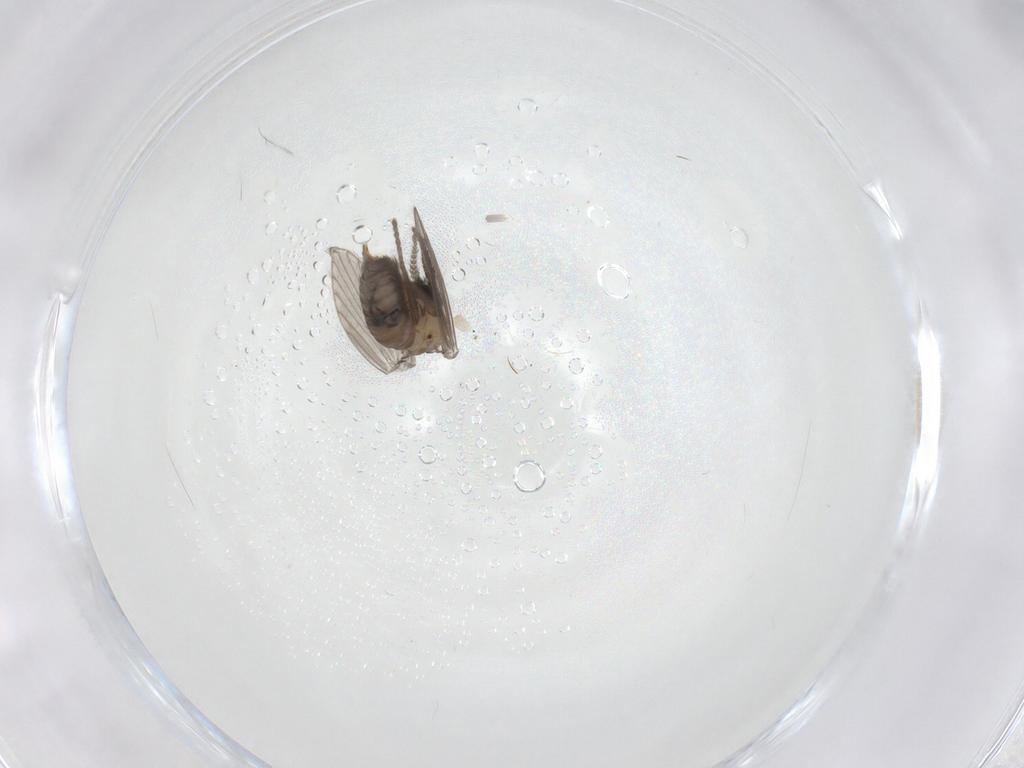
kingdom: Animalia
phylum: Arthropoda
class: Insecta
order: Diptera
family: Psychodidae
